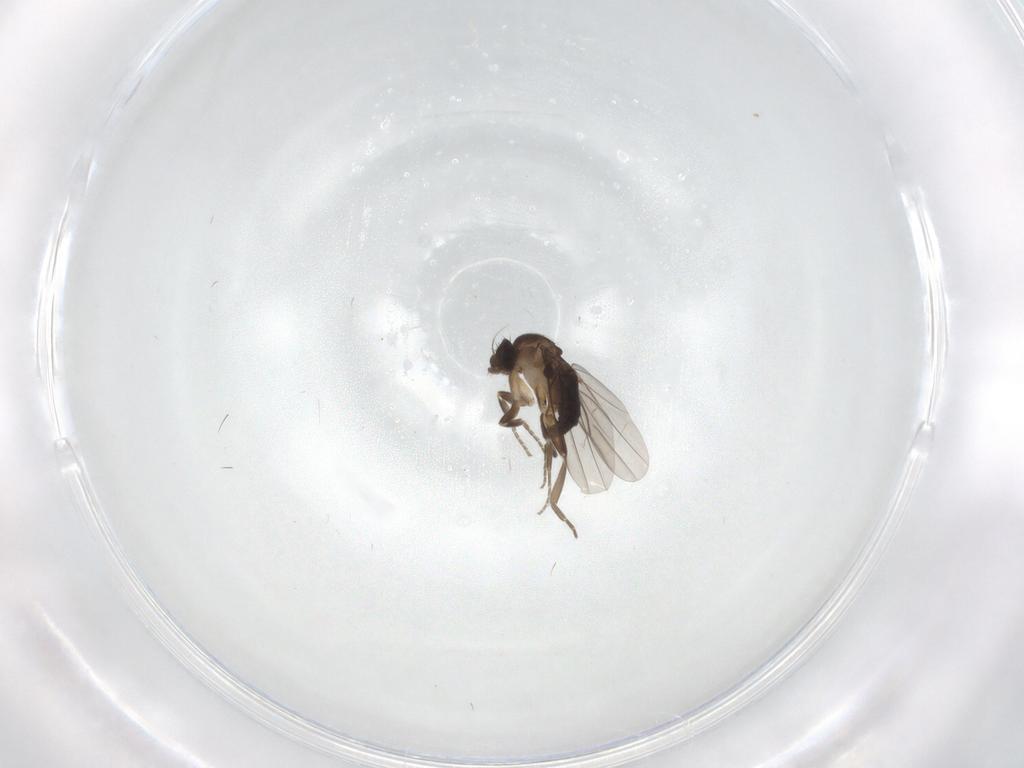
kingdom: Animalia
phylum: Arthropoda
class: Insecta
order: Diptera
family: Phoridae
